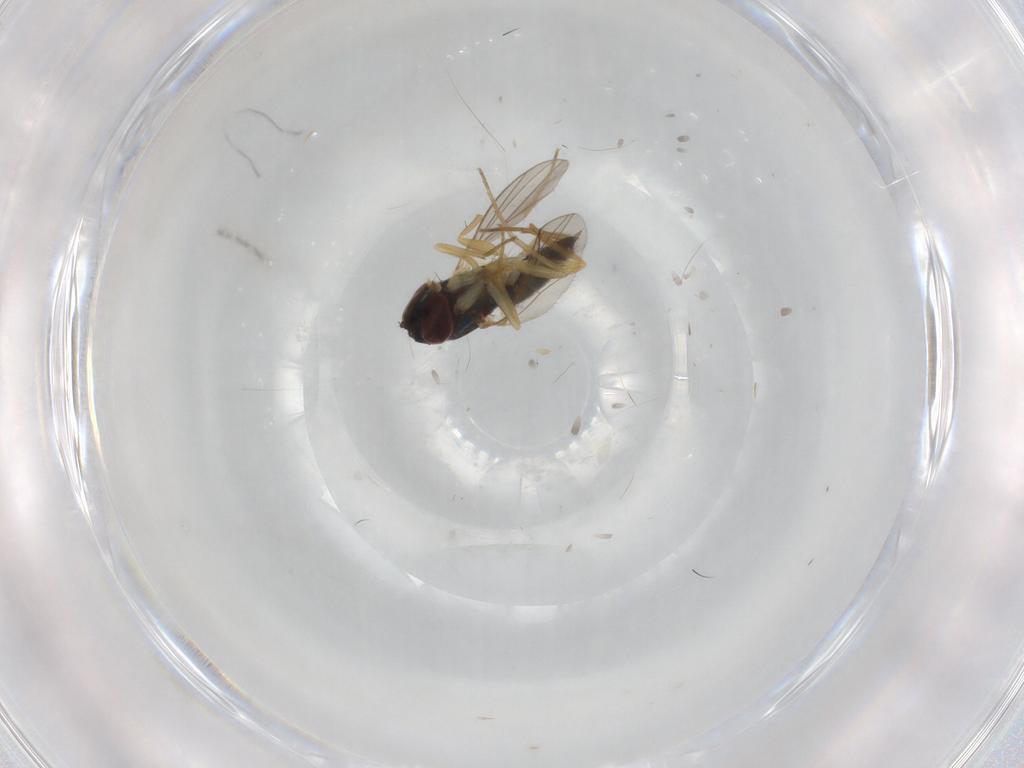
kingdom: Animalia
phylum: Arthropoda
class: Insecta
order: Diptera
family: Dolichopodidae
